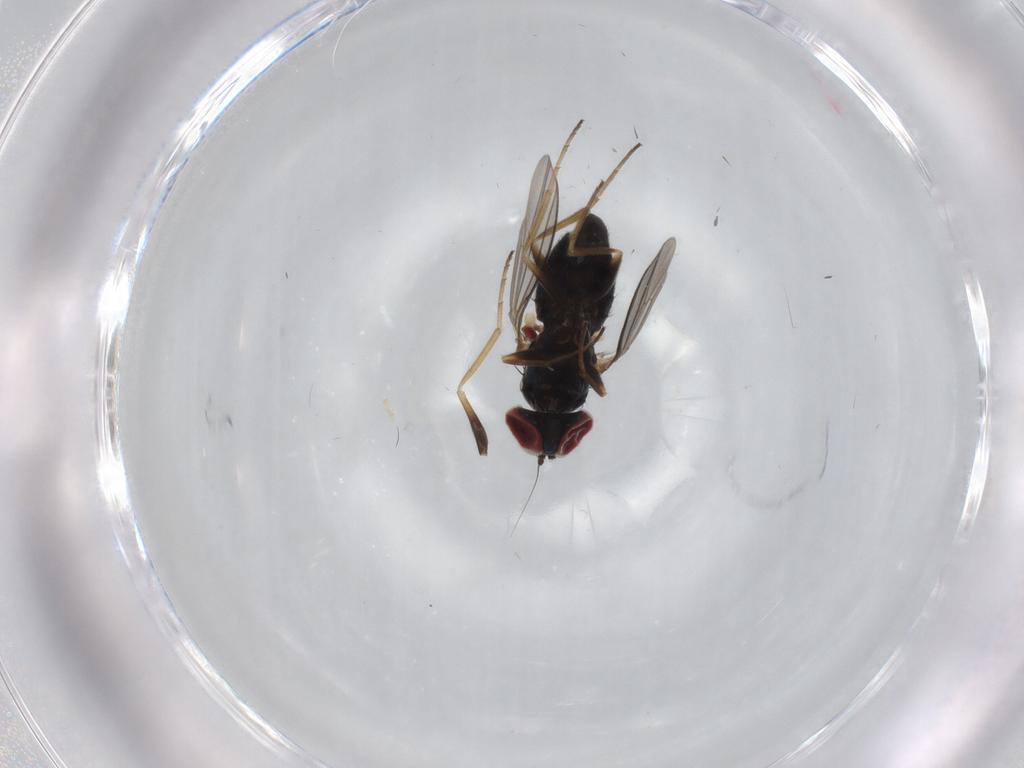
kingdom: Animalia
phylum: Arthropoda
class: Insecta
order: Diptera
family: Dolichopodidae
